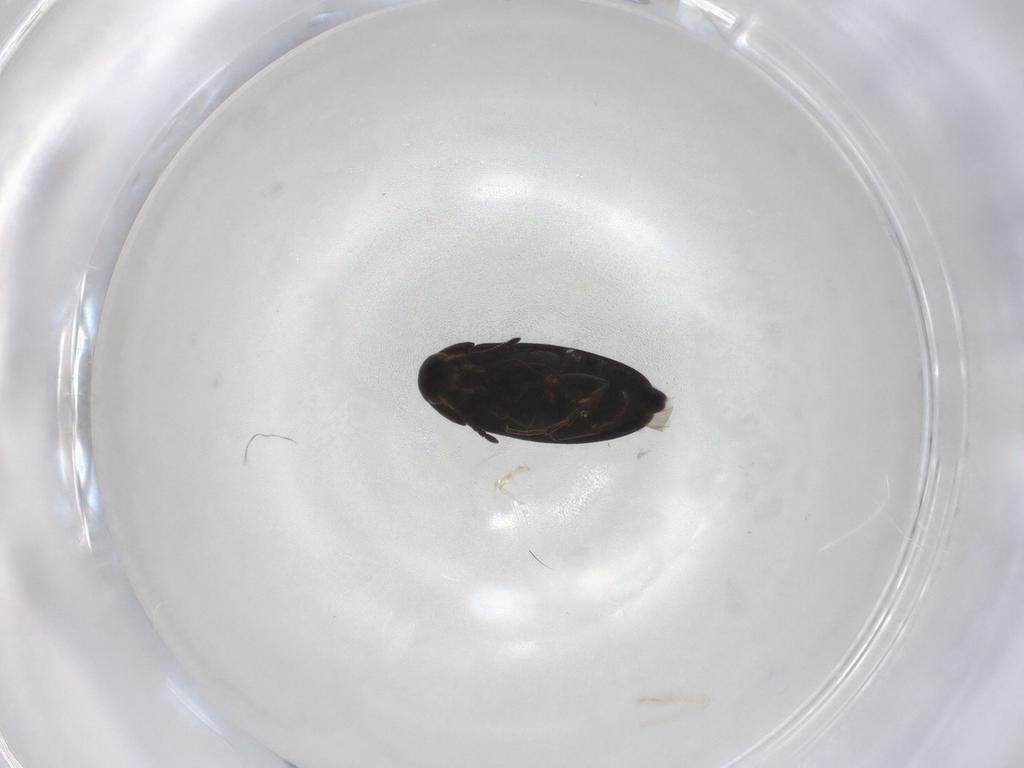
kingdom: Animalia
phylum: Arthropoda
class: Insecta
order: Coleoptera
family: Scraptiidae
